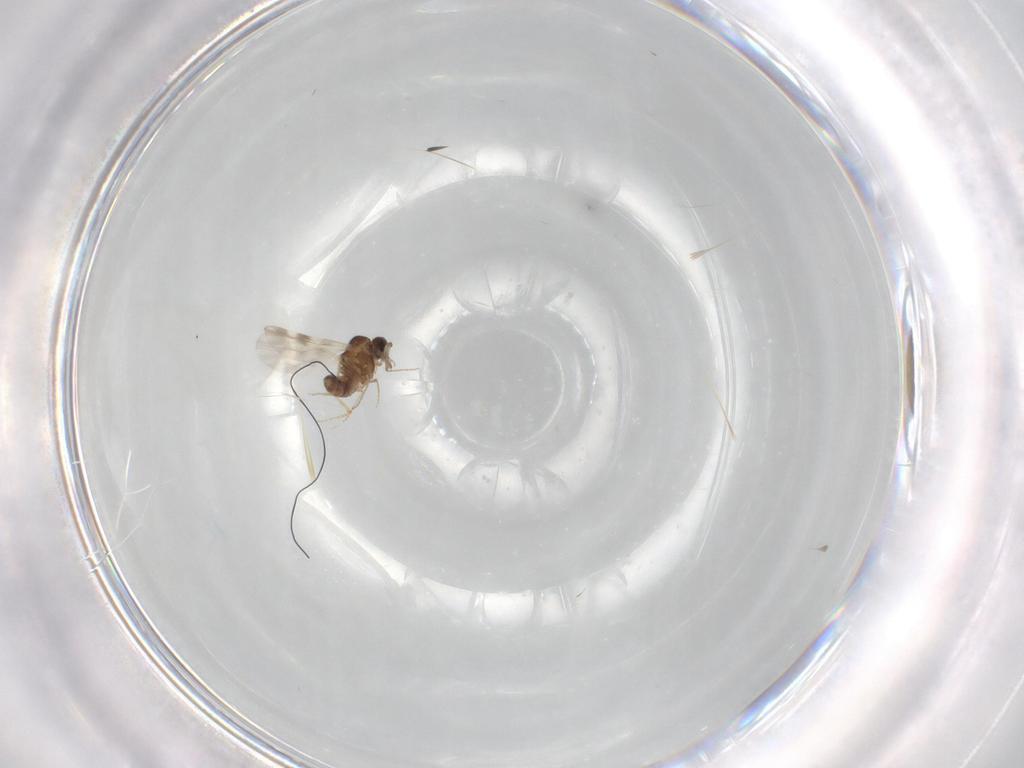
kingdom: Animalia
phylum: Arthropoda
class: Insecta
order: Diptera
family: Ceratopogonidae
